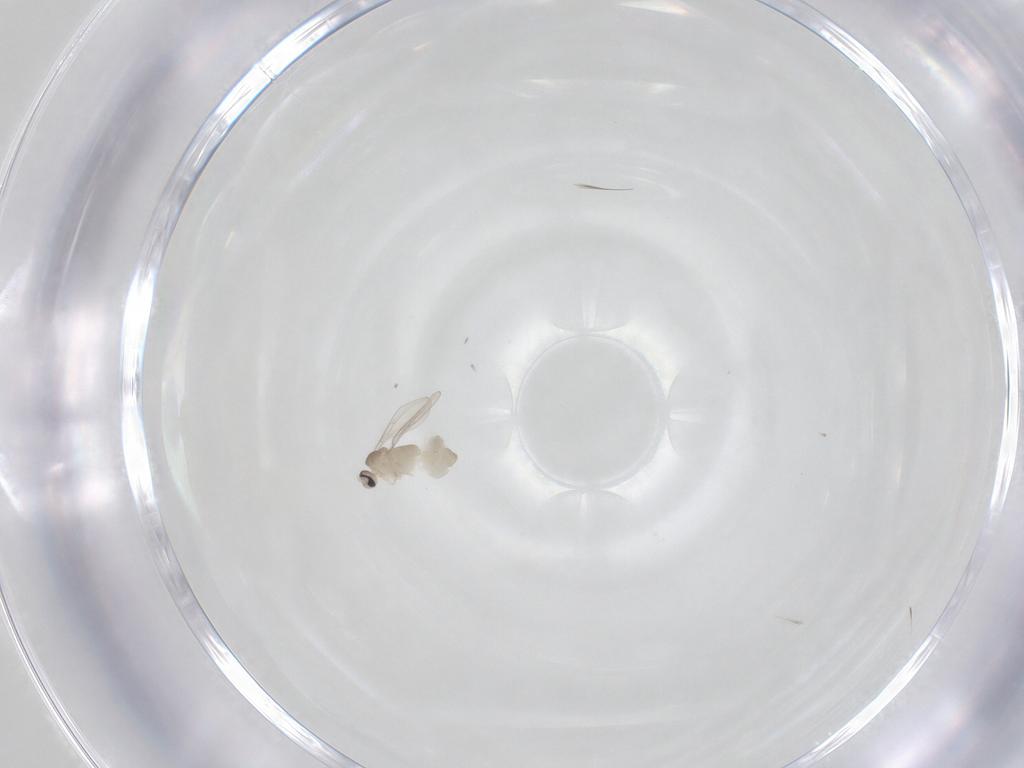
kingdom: Animalia
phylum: Arthropoda
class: Insecta
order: Diptera
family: Cecidomyiidae
